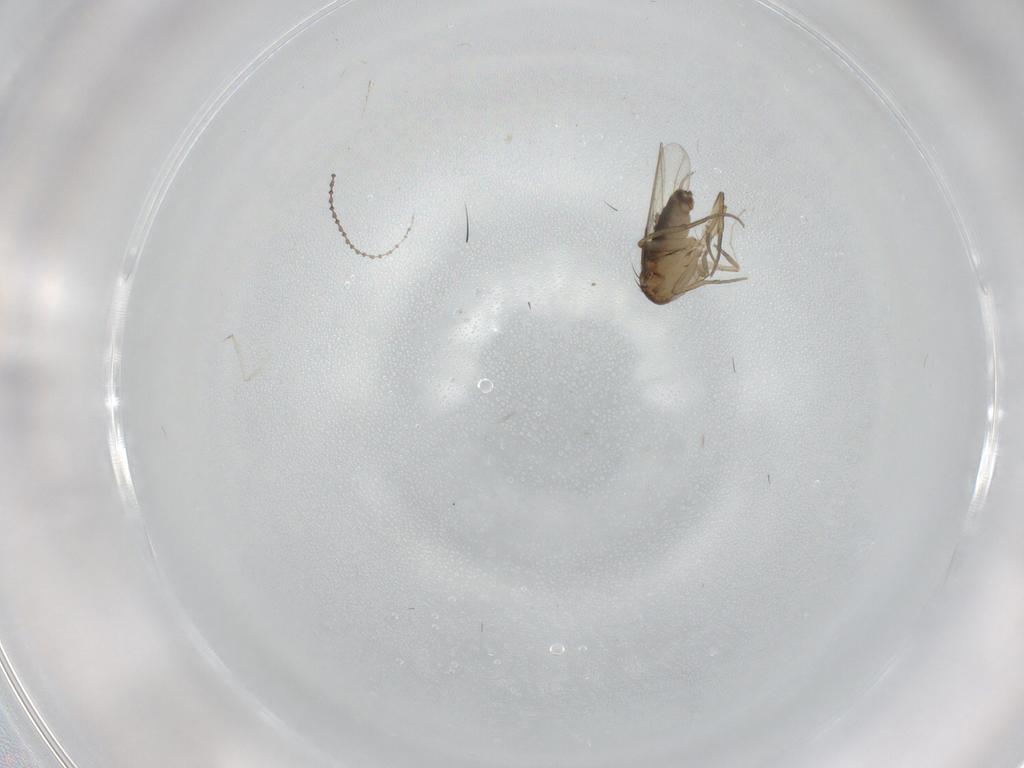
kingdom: Animalia
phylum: Arthropoda
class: Insecta
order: Diptera
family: Phoridae
